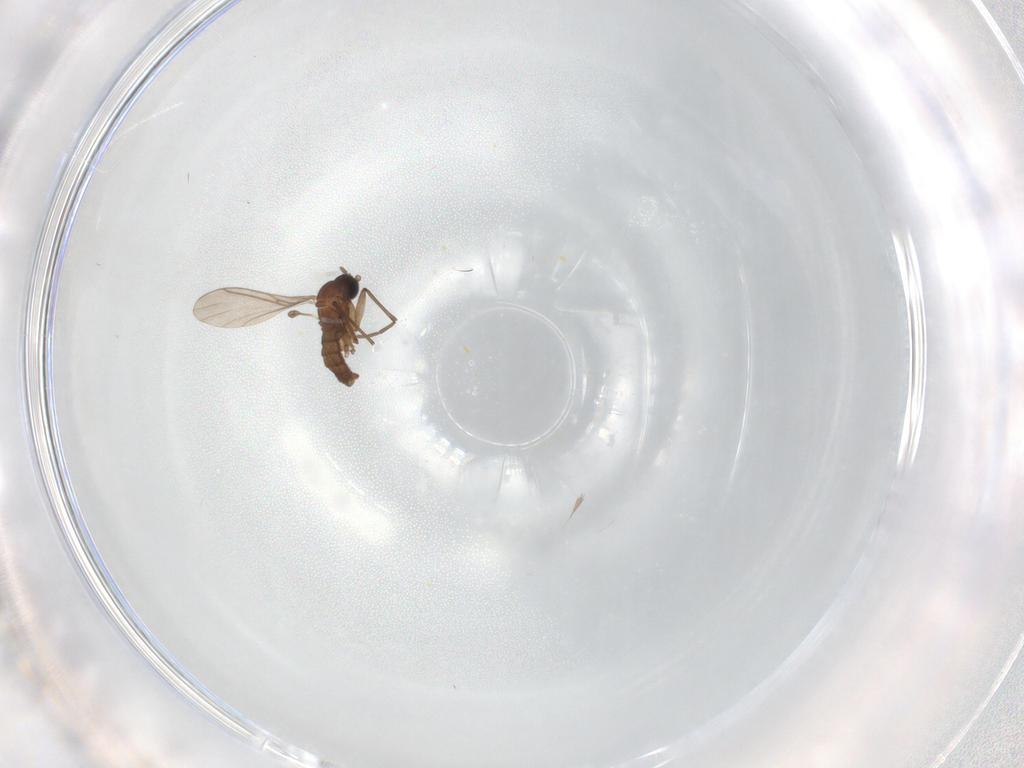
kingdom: Animalia
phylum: Arthropoda
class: Insecta
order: Diptera
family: Sciaridae
